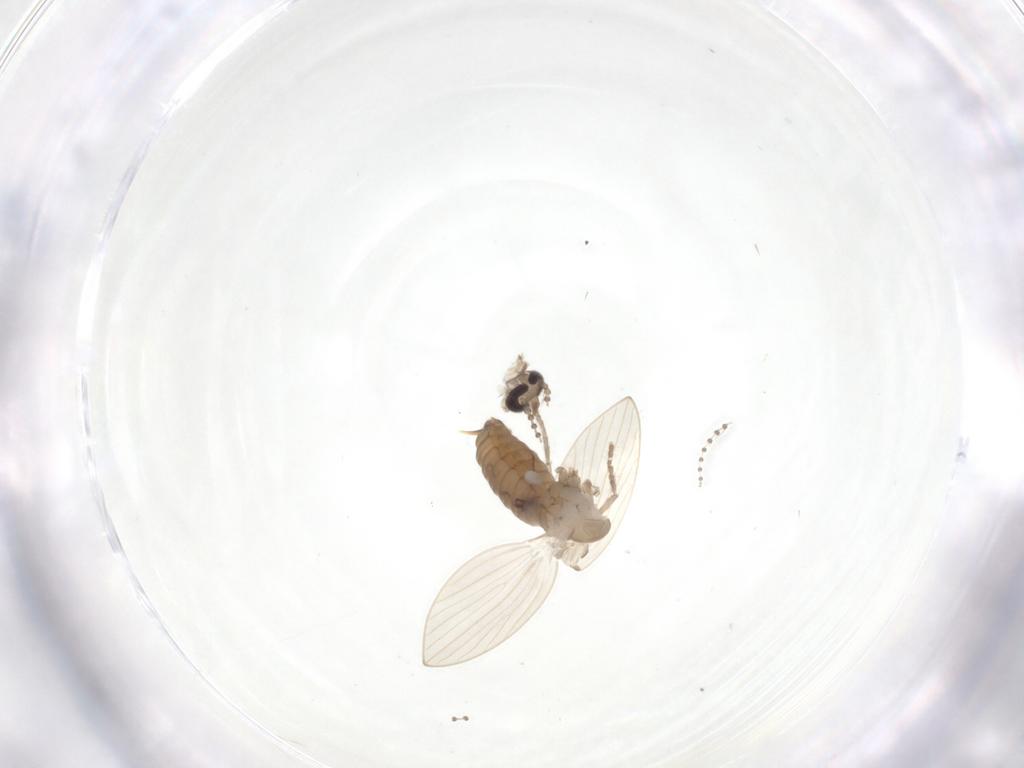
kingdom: Animalia
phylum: Arthropoda
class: Insecta
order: Diptera
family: Psychodidae
